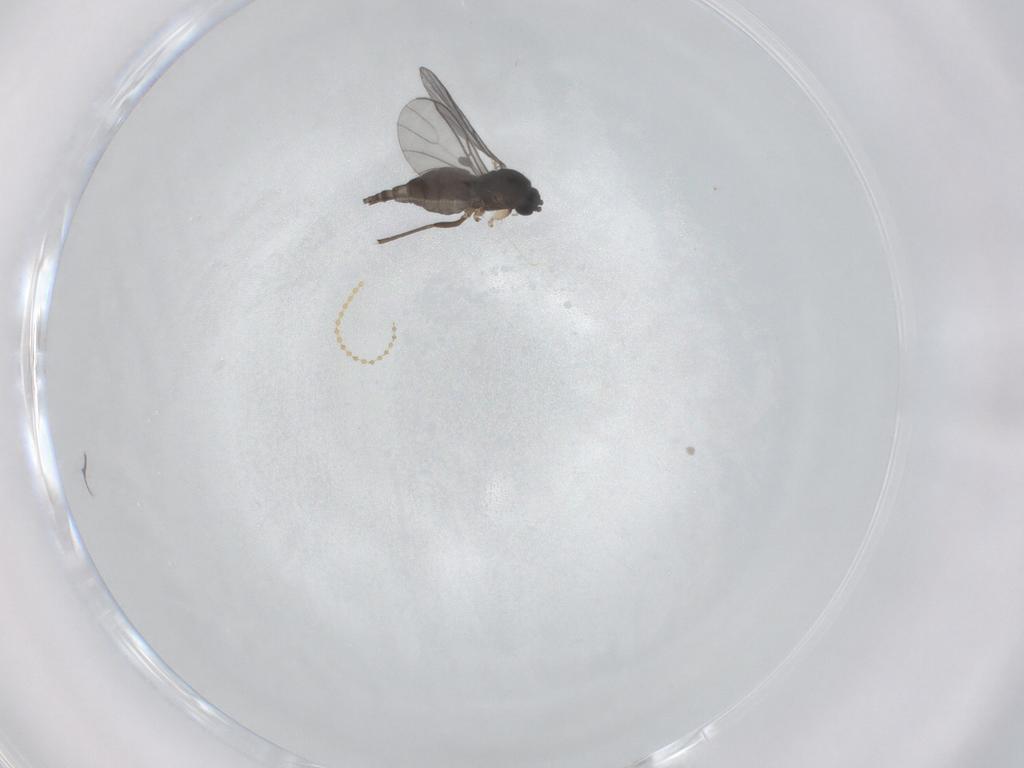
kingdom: Animalia
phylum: Arthropoda
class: Insecta
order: Diptera
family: Sciaridae
